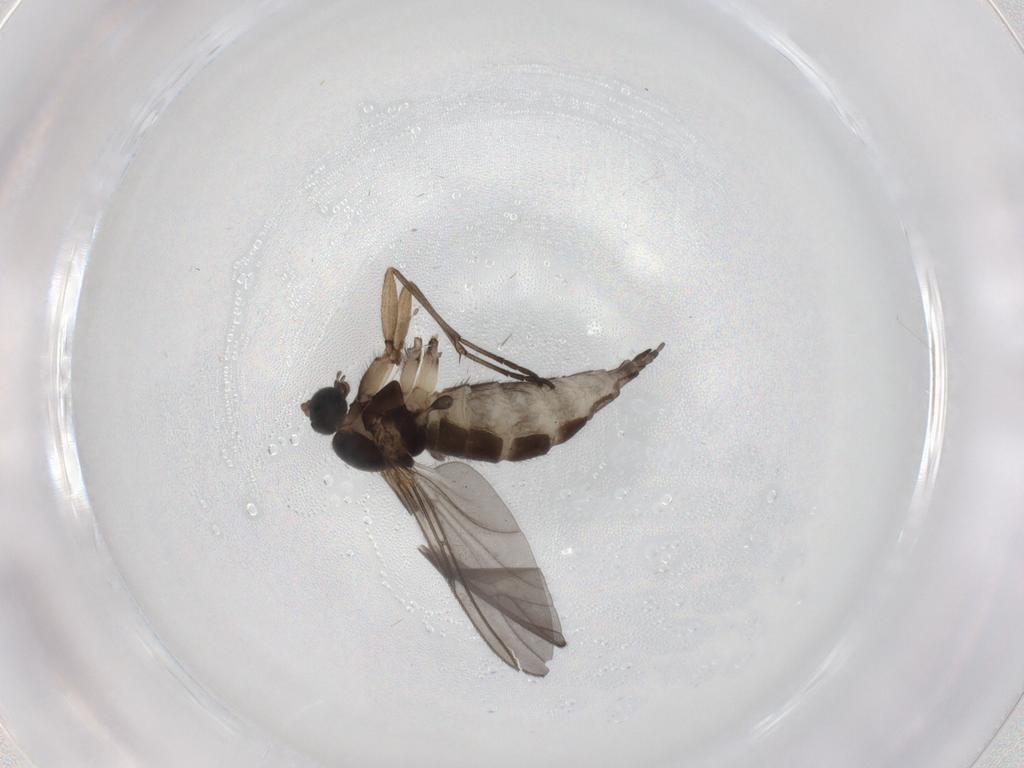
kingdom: Animalia
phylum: Arthropoda
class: Insecta
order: Diptera
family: Sciaridae
